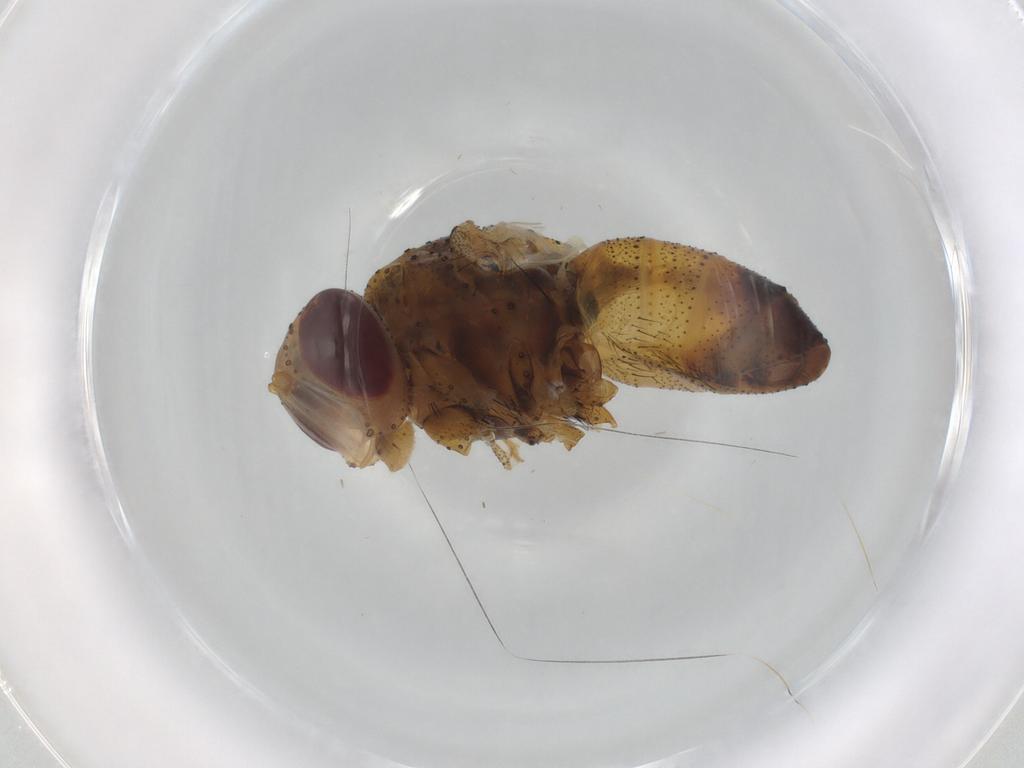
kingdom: Animalia
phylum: Arthropoda
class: Insecta
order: Diptera
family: Tachinidae
